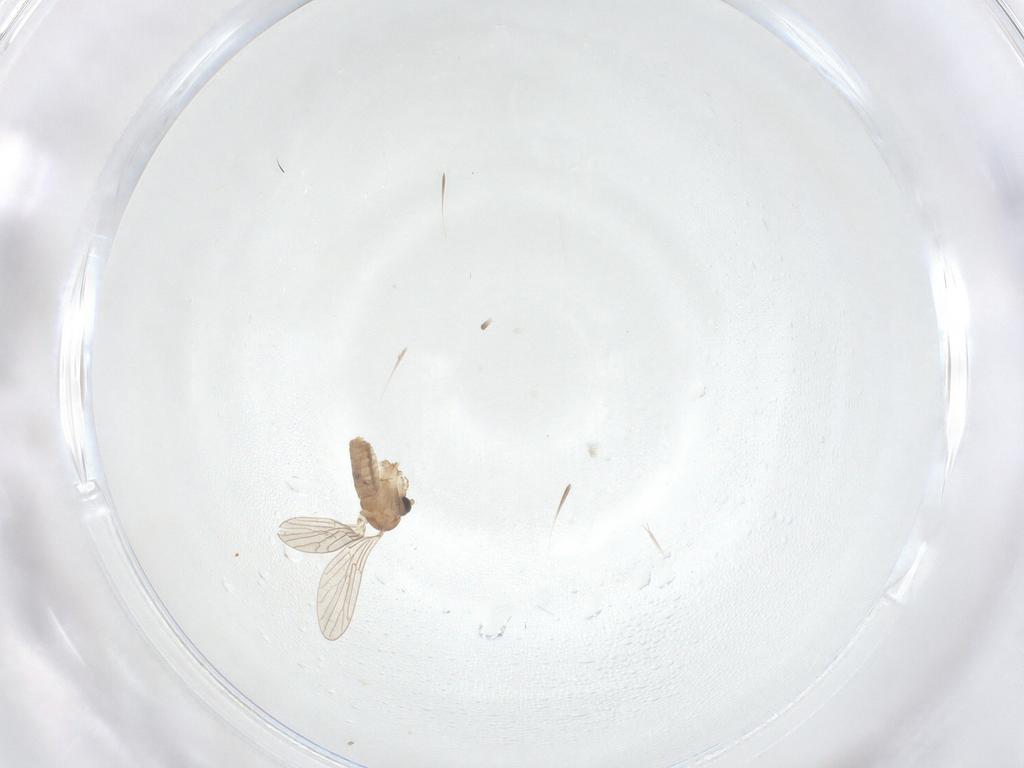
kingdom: Animalia
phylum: Arthropoda
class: Insecta
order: Diptera
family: Psychodidae
